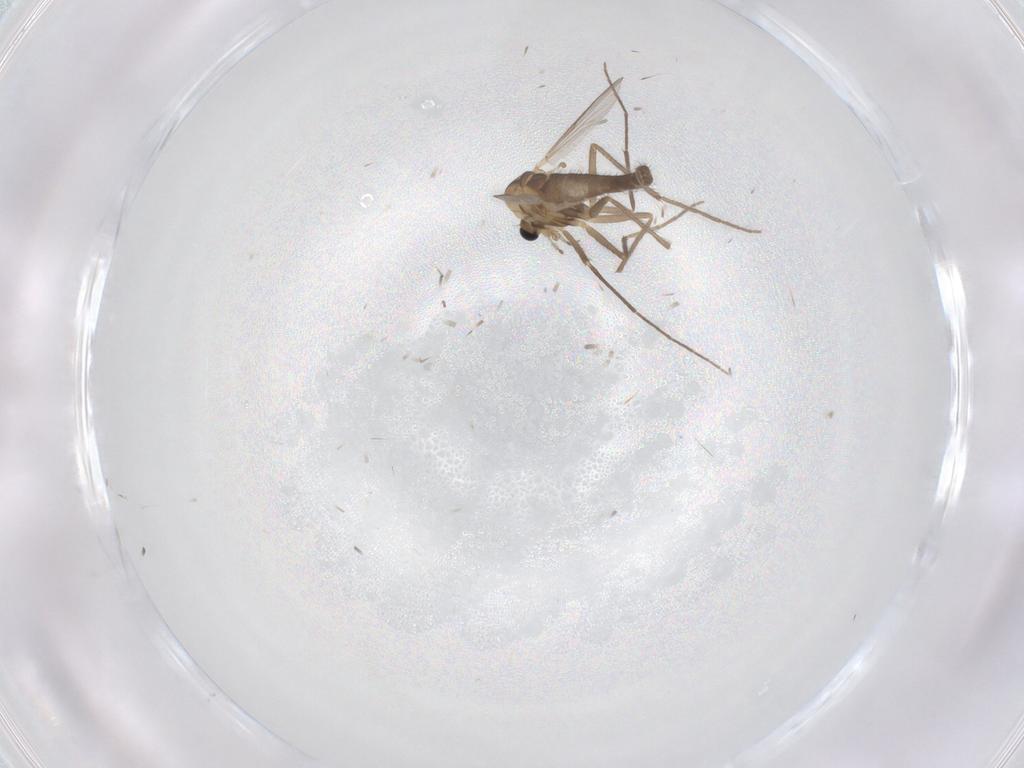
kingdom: Animalia
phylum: Arthropoda
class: Insecta
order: Diptera
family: Chironomidae
